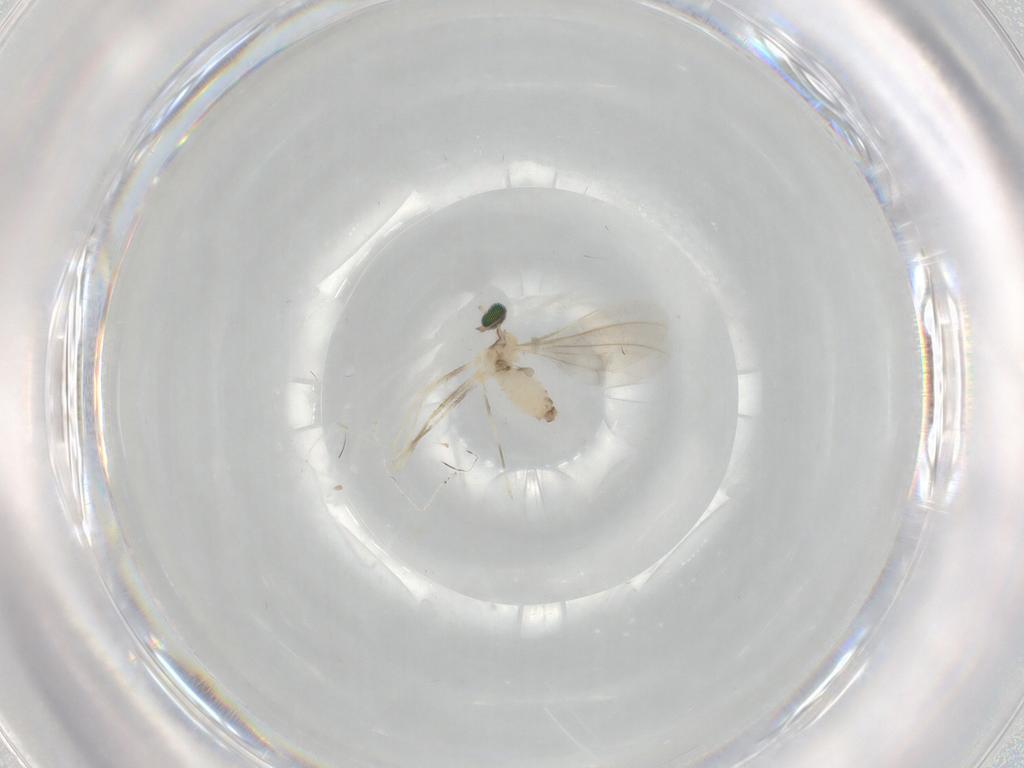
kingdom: Animalia
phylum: Arthropoda
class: Insecta
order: Diptera
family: Cecidomyiidae
